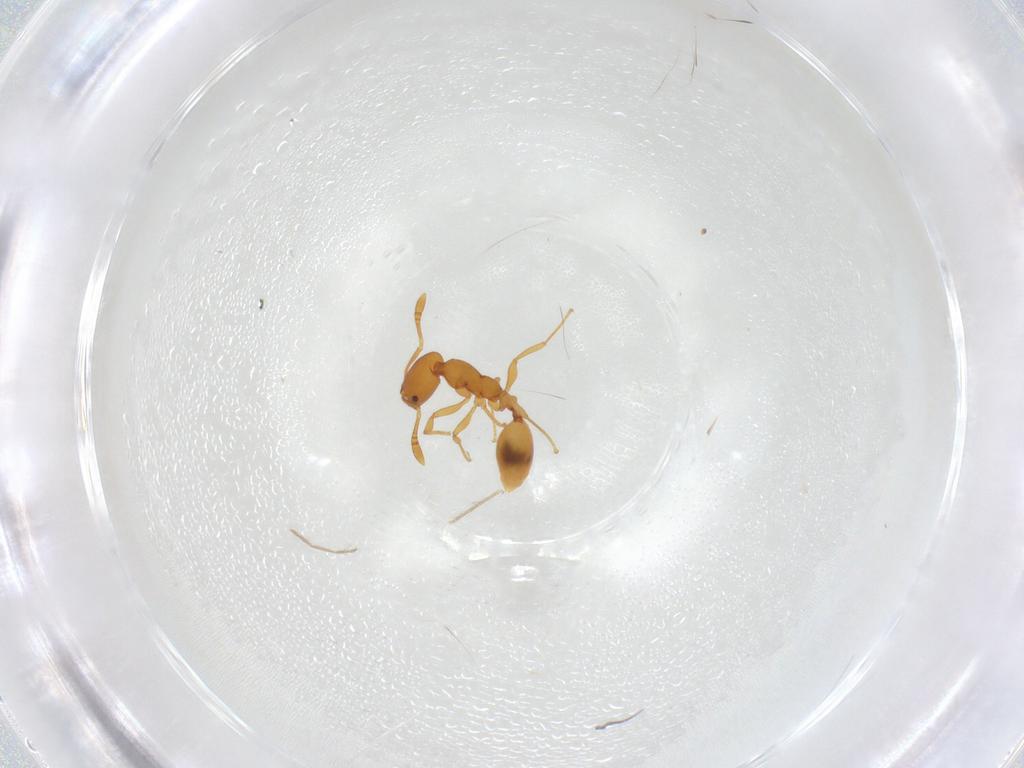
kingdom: Animalia
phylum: Arthropoda
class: Insecta
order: Hymenoptera
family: Formicidae
